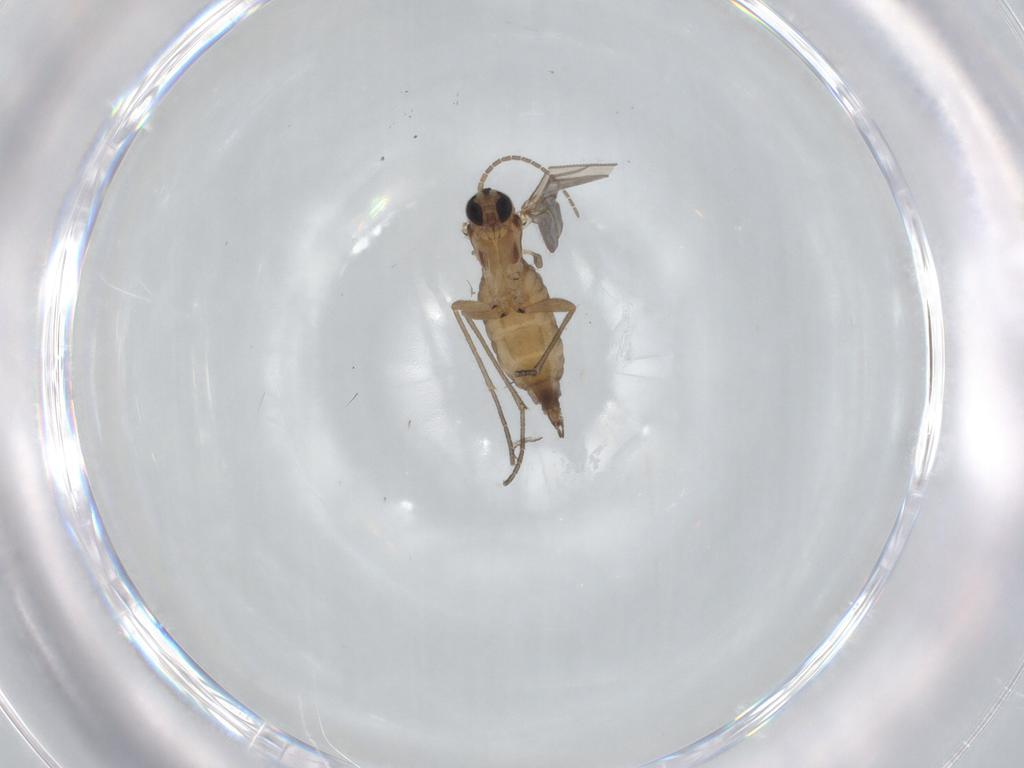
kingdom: Animalia
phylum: Arthropoda
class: Insecta
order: Diptera
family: Sciaridae
